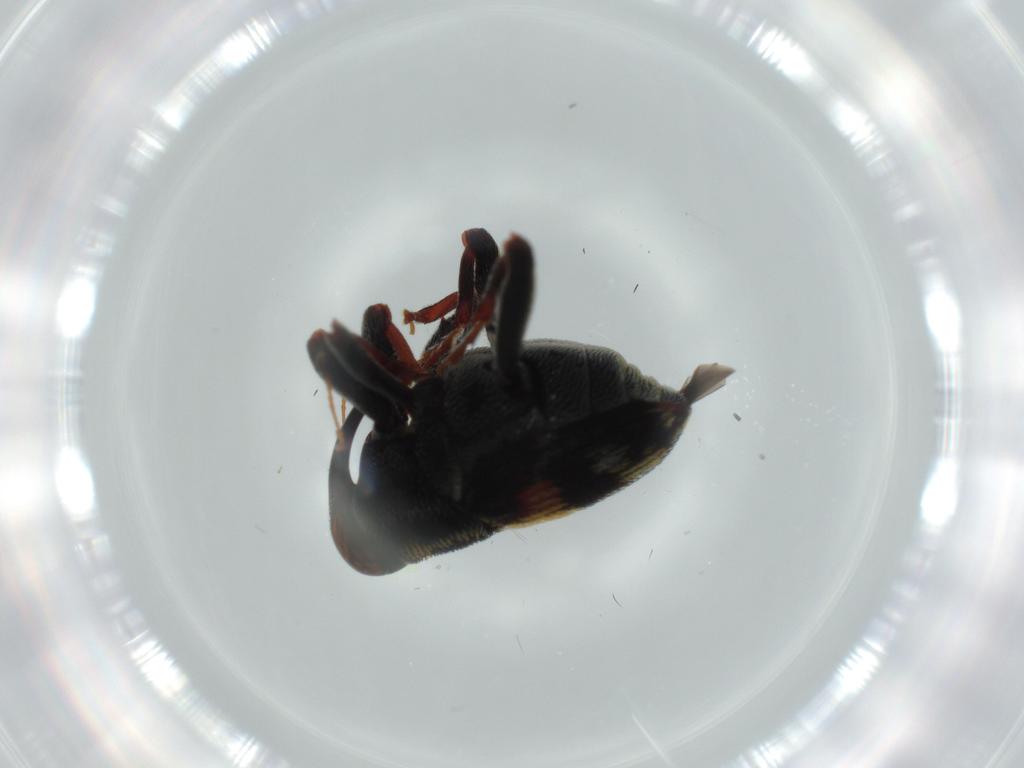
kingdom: Animalia
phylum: Arthropoda
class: Insecta
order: Coleoptera
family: Curculionidae
